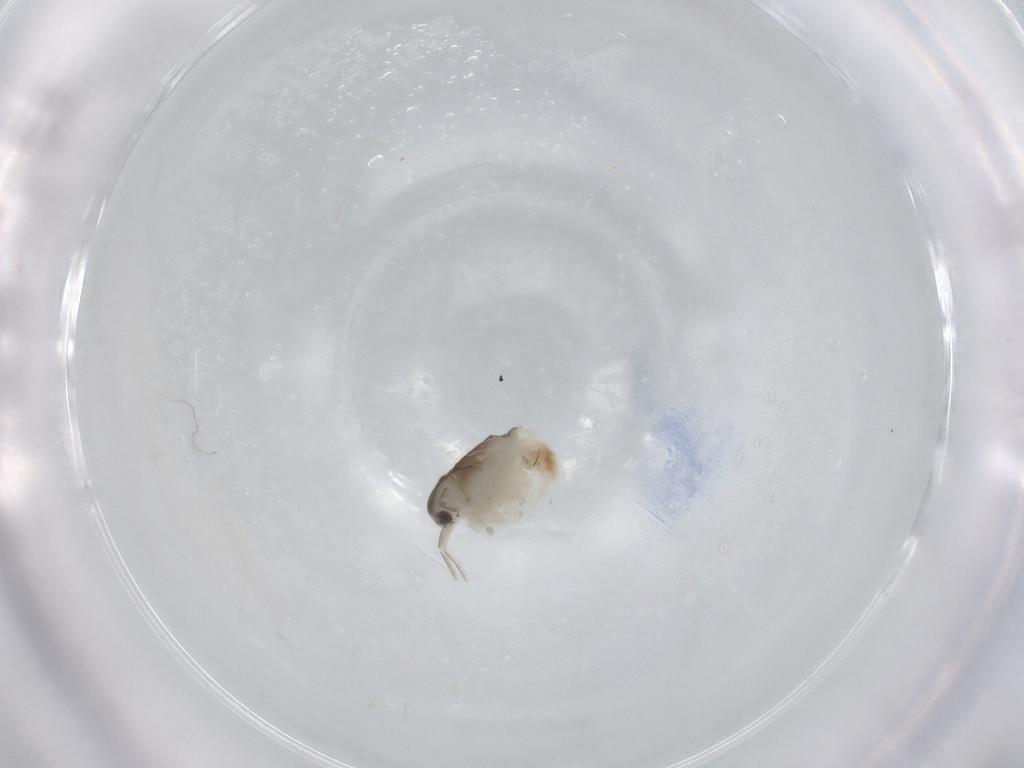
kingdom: Animalia
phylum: Arthropoda
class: Branchiopoda
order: Diplostraca
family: Daphniidae
